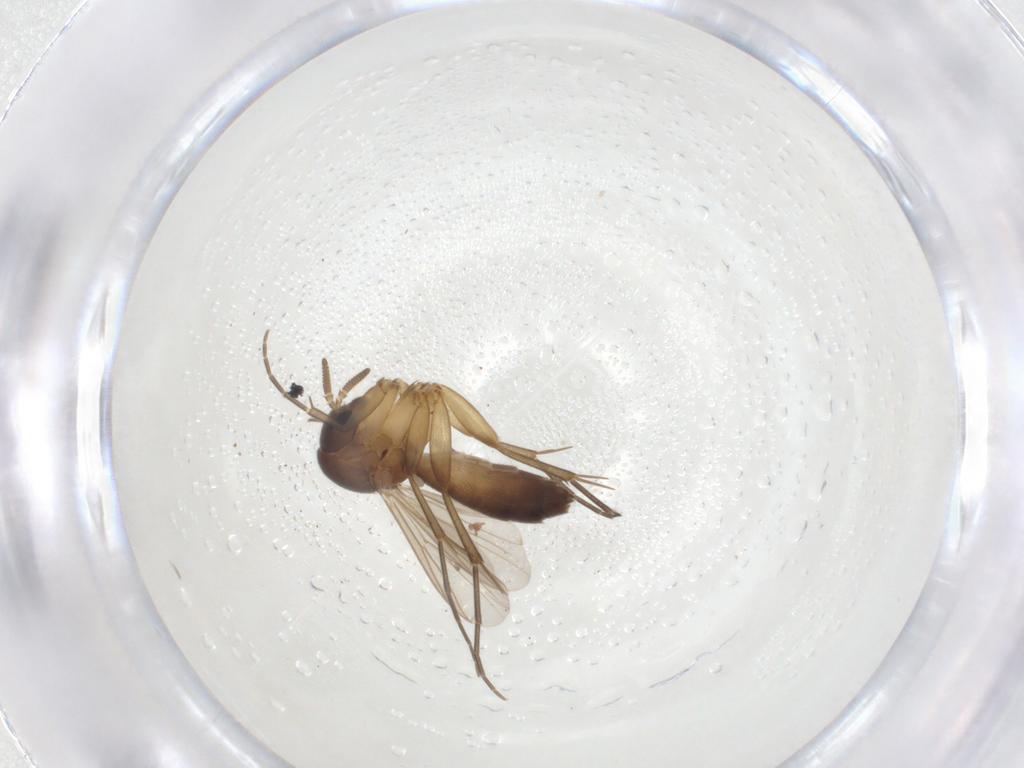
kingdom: Animalia
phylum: Arthropoda
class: Insecta
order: Diptera
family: Mycetophilidae
